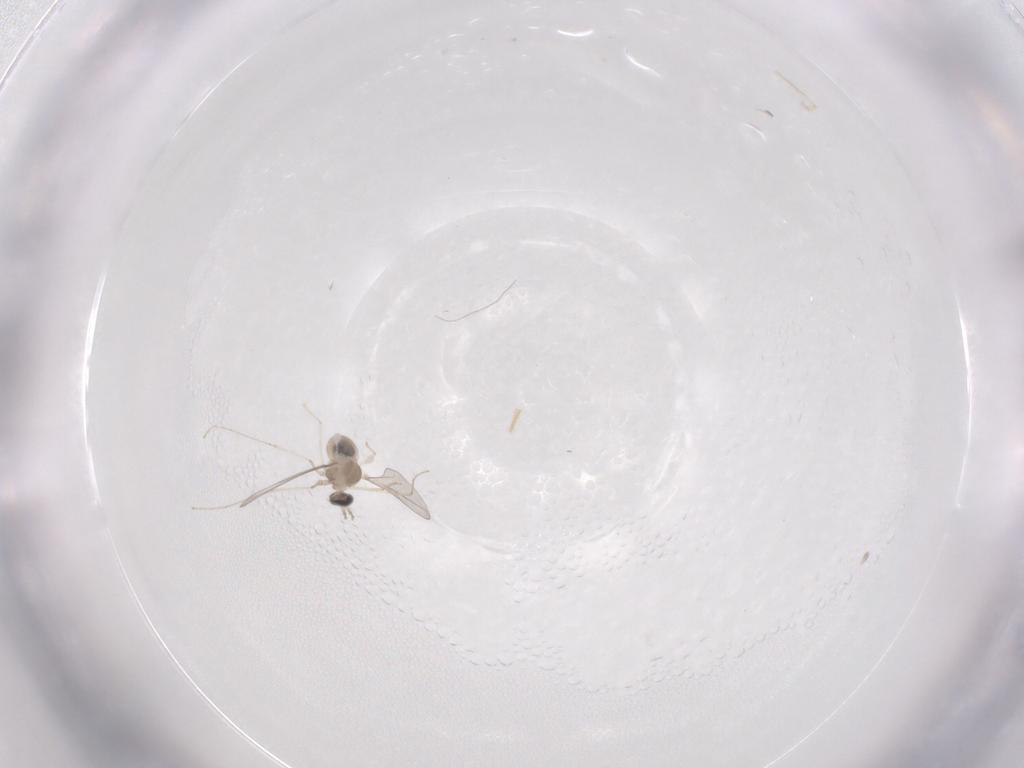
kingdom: Animalia
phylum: Arthropoda
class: Insecta
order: Diptera
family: Cecidomyiidae
